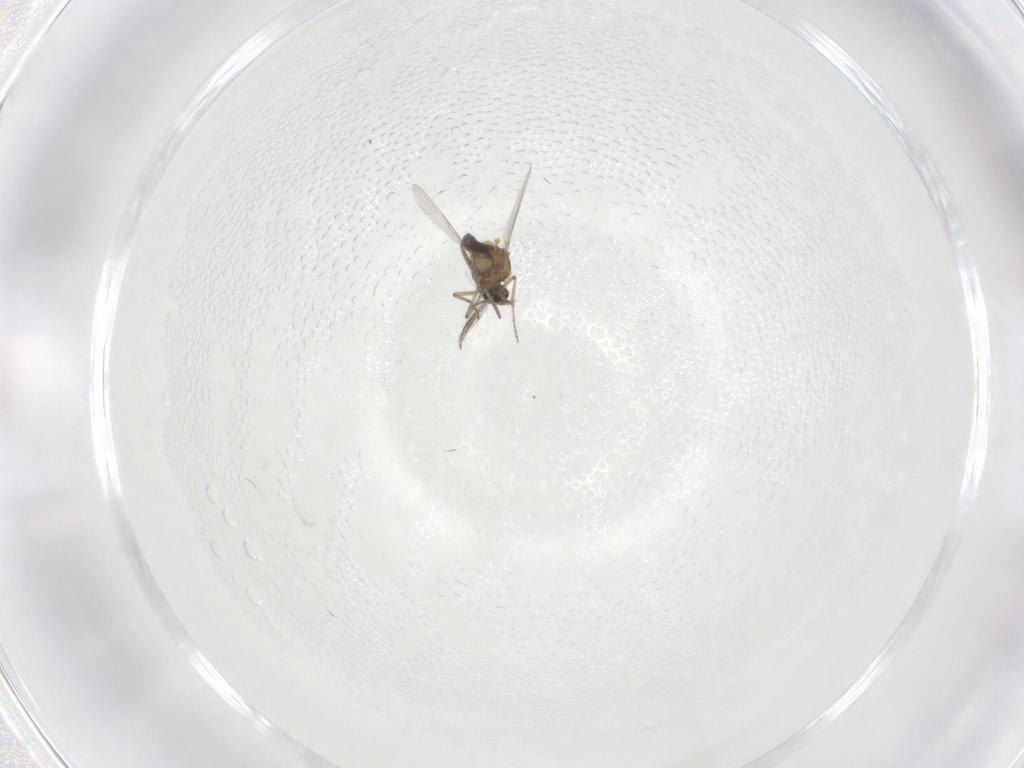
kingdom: Animalia
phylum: Arthropoda
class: Insecta
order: Diptera
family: Ceratopogonidae
